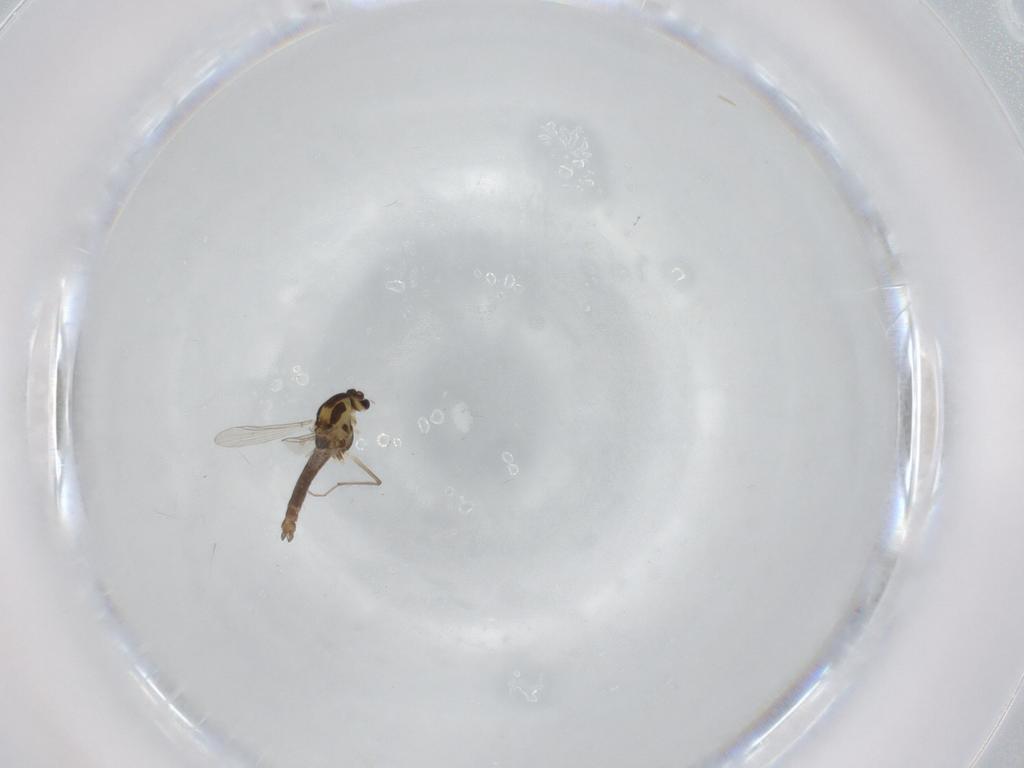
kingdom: Animalia
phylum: Arthropoda
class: Insecta
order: Diptera
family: Chironomidae
